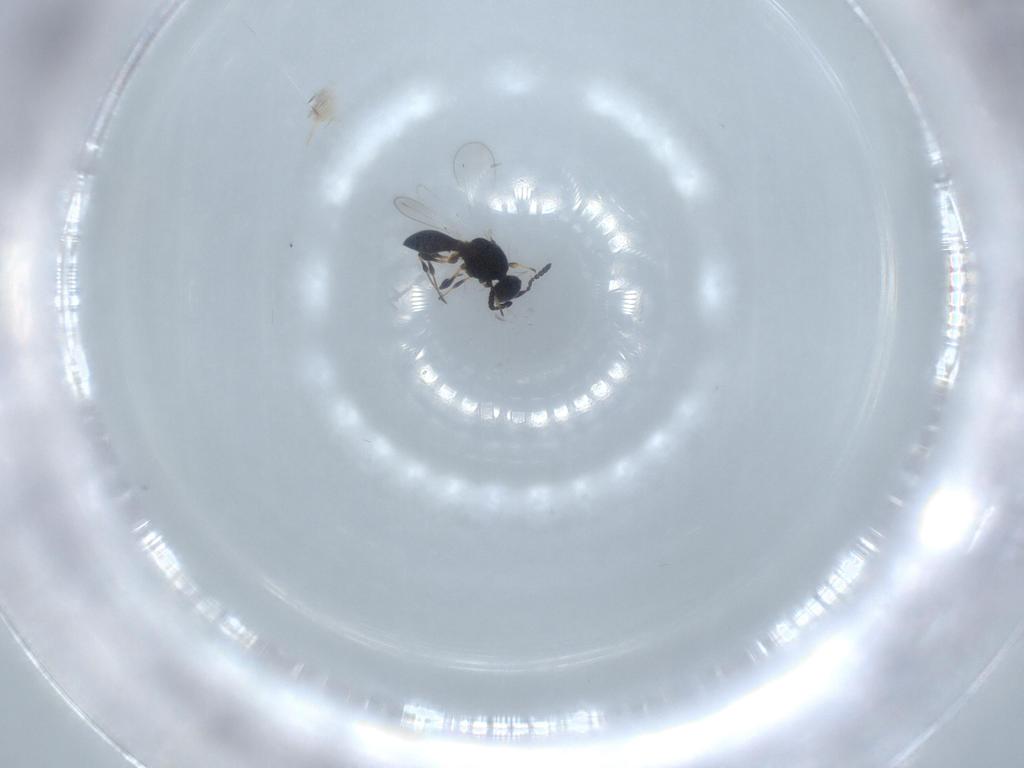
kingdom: Animalia
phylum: Arthropoda
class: Insecta
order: Hymenoptera
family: Platygastridae
